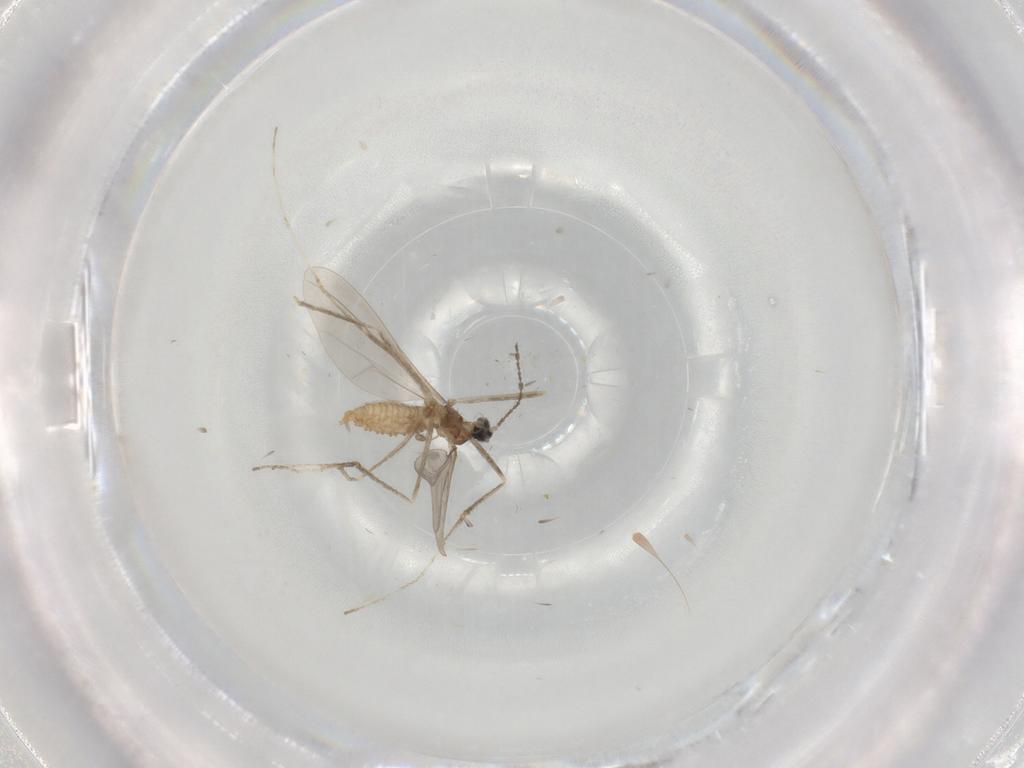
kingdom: Animalia
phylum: Arthropoda
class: Insecta
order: Diptera
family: Cecidomyiidae
